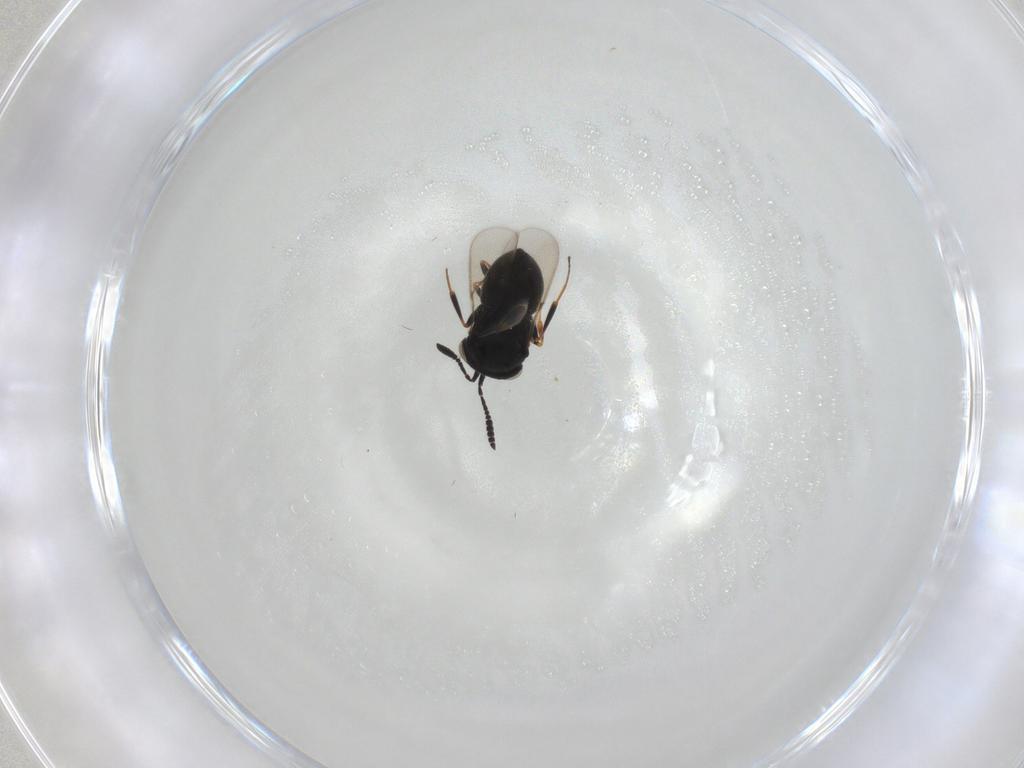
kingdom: Animalia
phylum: Arthropoda
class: Insecta
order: Hymenoptera
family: Scelionidae
